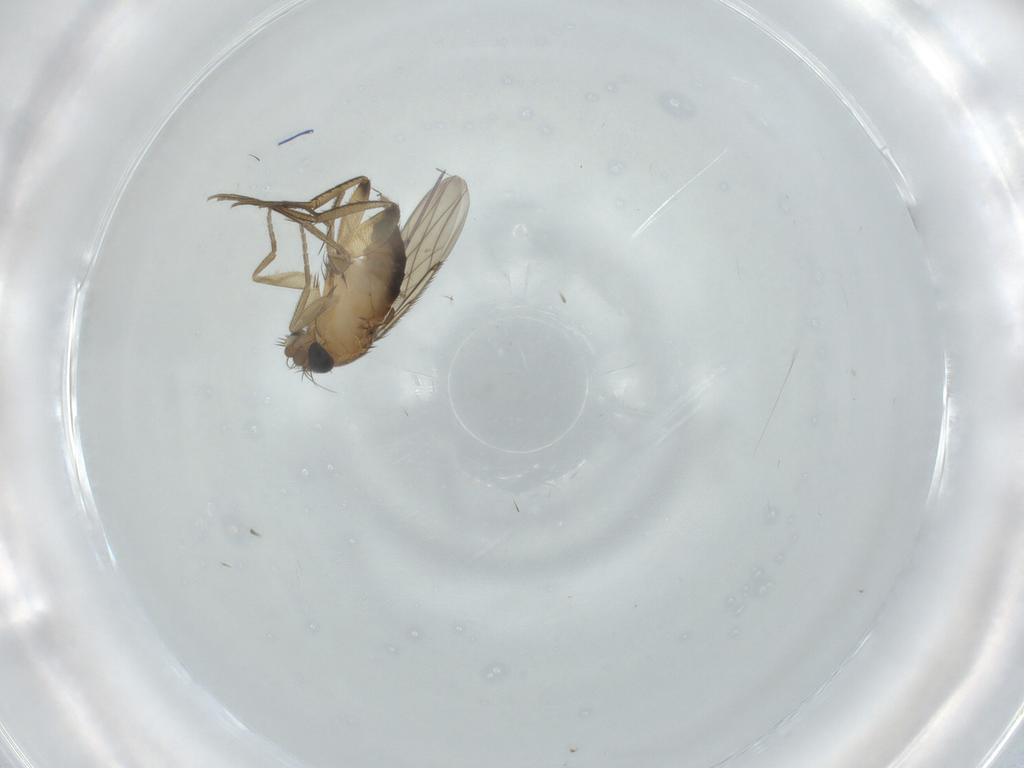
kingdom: Animalia
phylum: Arthropoda
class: Insecta
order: Diptera
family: Phoridae
